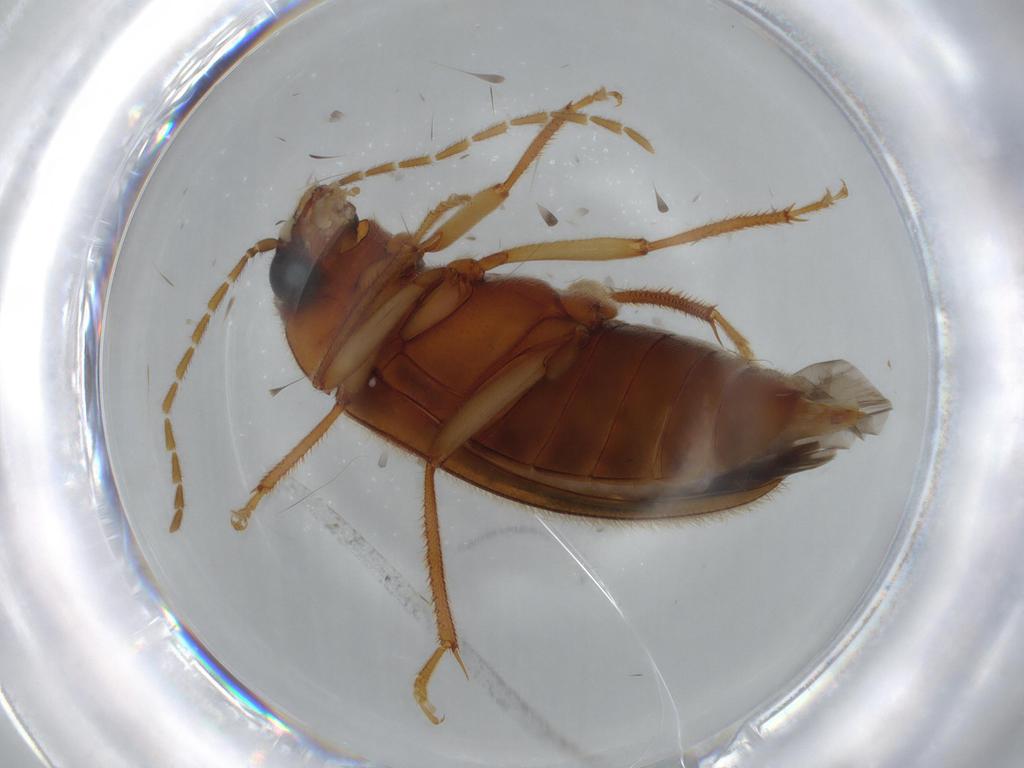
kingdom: Animalia
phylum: Arthropoda
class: Insecta
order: Coleoptera
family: Ptilodactylidae
